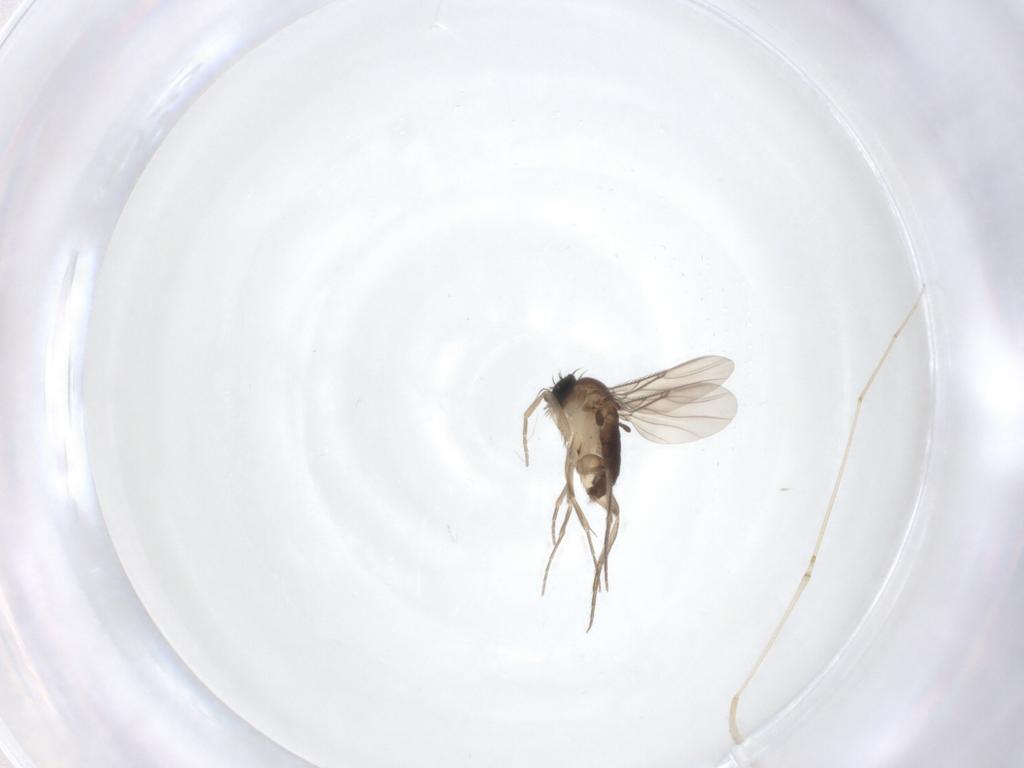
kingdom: Animalia
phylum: Arthropoda
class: Insecta
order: Diptera
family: Phoridae
